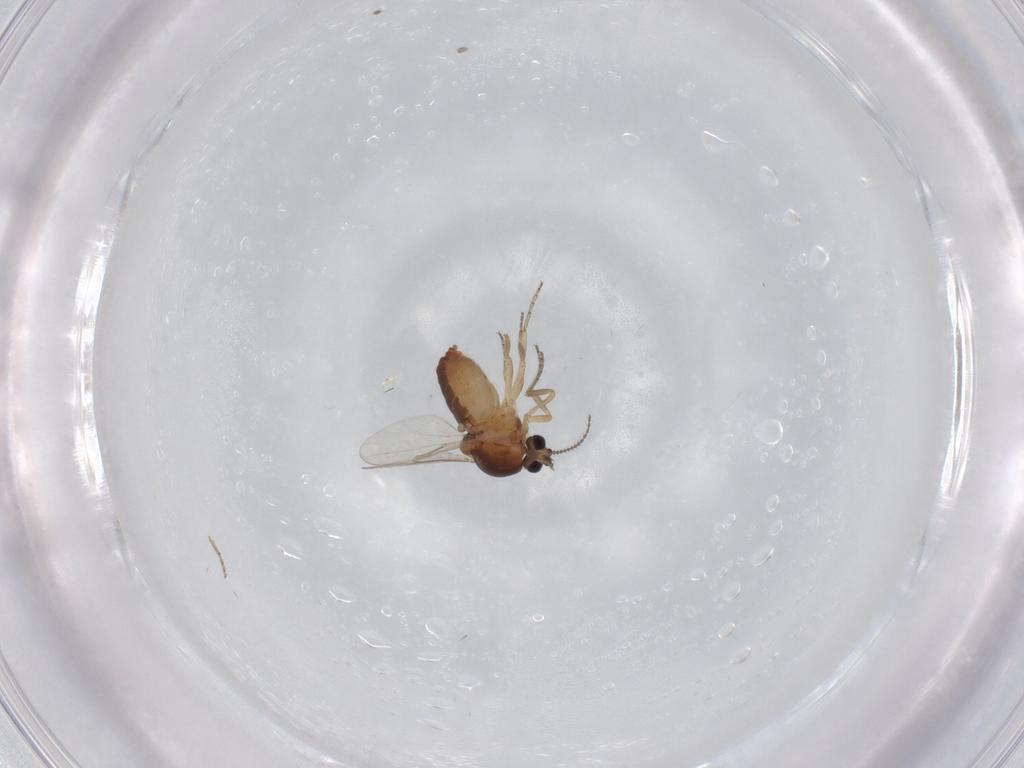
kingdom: Animalia
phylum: Arthropoda
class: Insecta
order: Diptera
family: Ceratopogonidae
